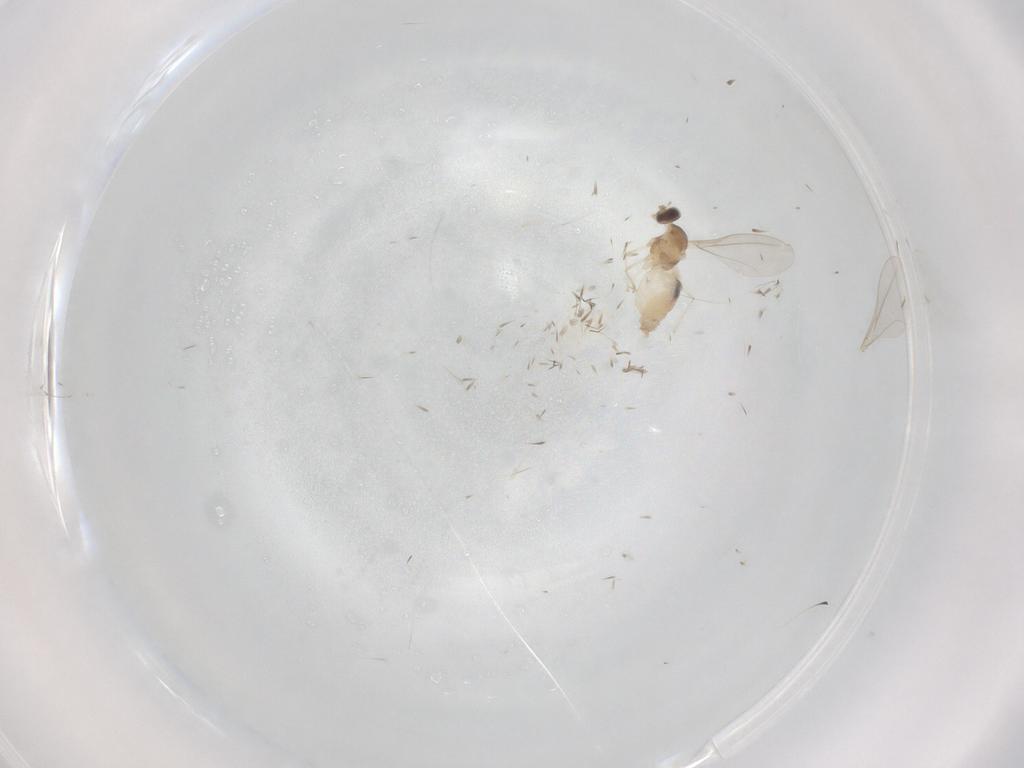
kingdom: Animalia
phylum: Arthropoda
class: Insecta
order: Diptera
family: Cecidomyiidae
